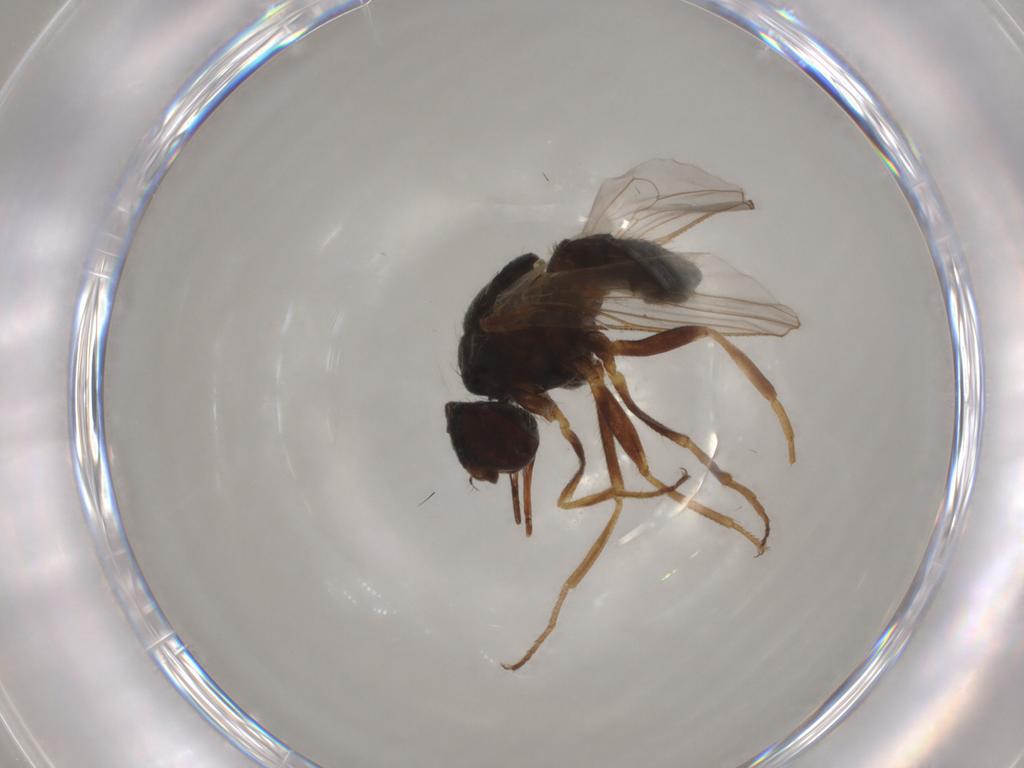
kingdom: Animalia
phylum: Arthropoda
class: Insecta
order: Diptera
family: Muscidae
